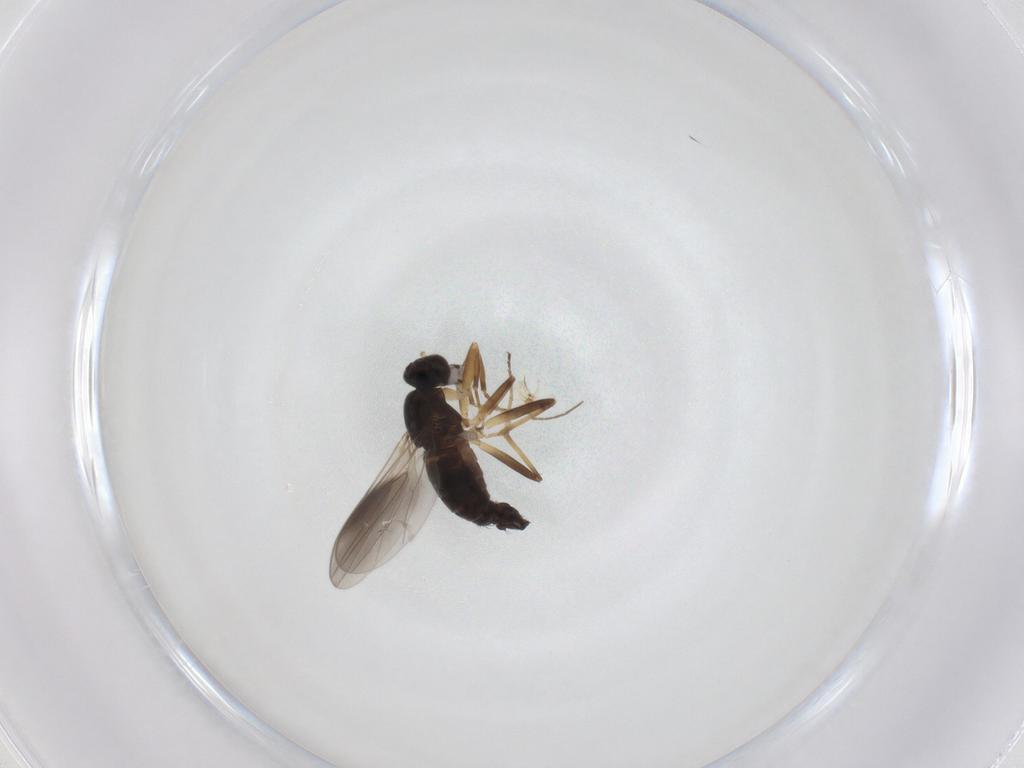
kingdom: Animalia
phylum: Arthropoda
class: Insecta
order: Diptera
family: Hybotidae
